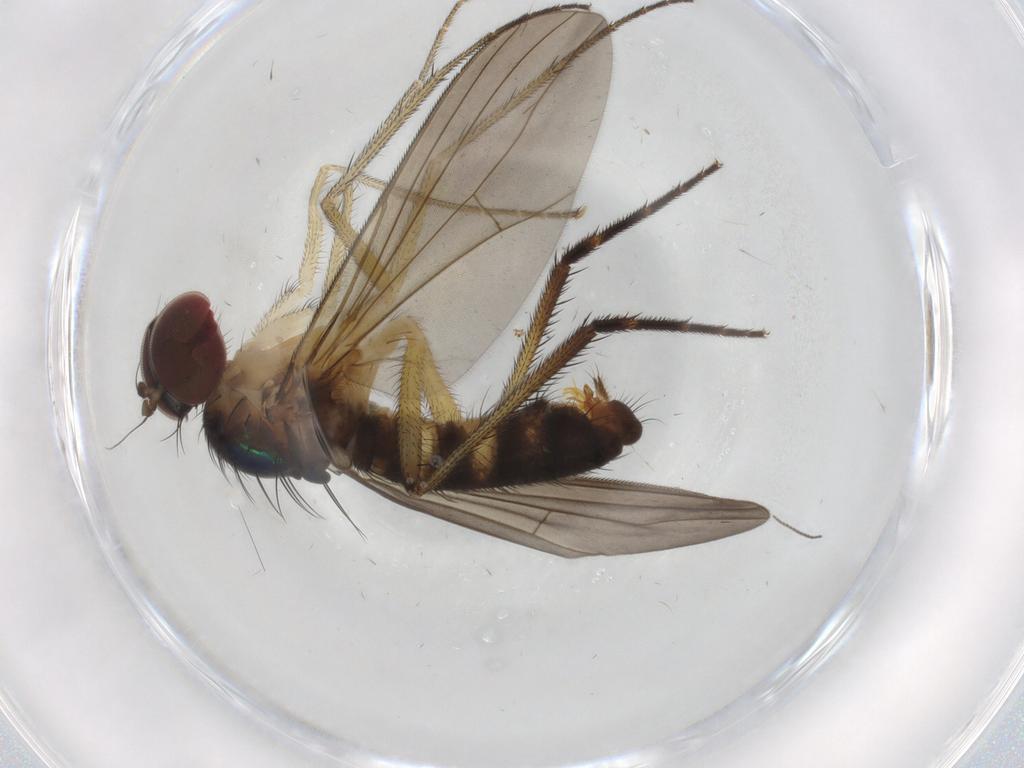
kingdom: Animalia
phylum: Arthropoda
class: Insecta
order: Diptera
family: Dolichopodidae
